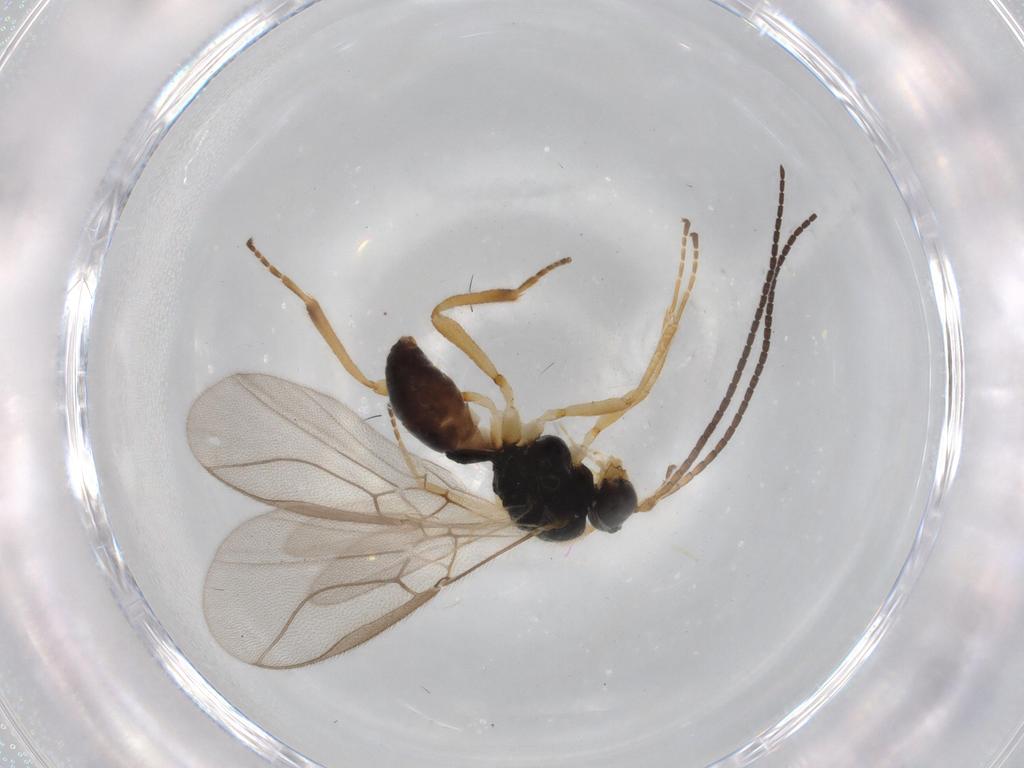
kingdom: Animalia
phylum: Arthropoda
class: Insecta
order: Hymenoptera
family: Braconidae
